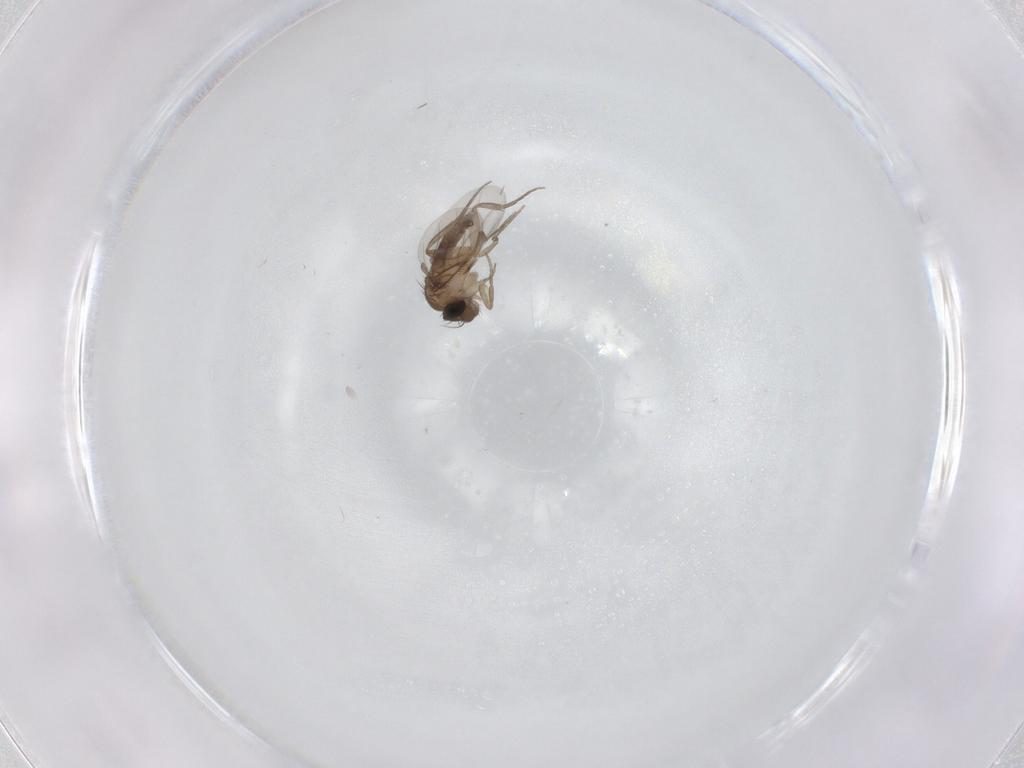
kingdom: Animalia
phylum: Arthropoda
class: Insecta
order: Diptera
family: Phoridae
